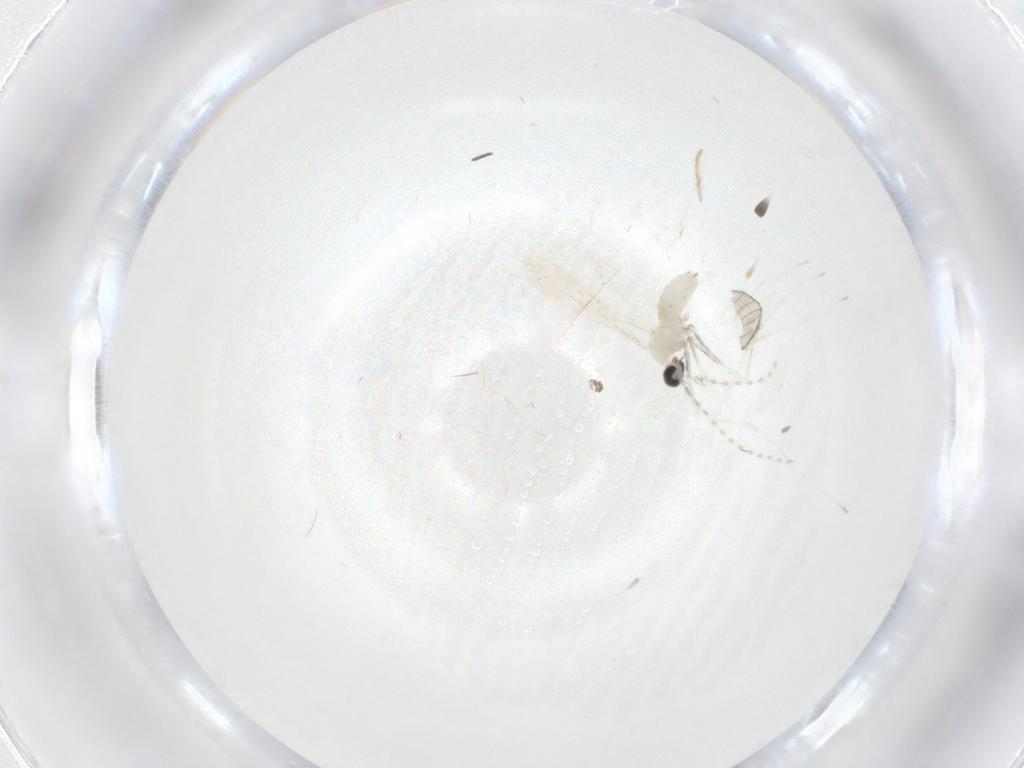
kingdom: Animalia
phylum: Arthropoda
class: Insecta
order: Diptera
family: Cecidomyiidae
